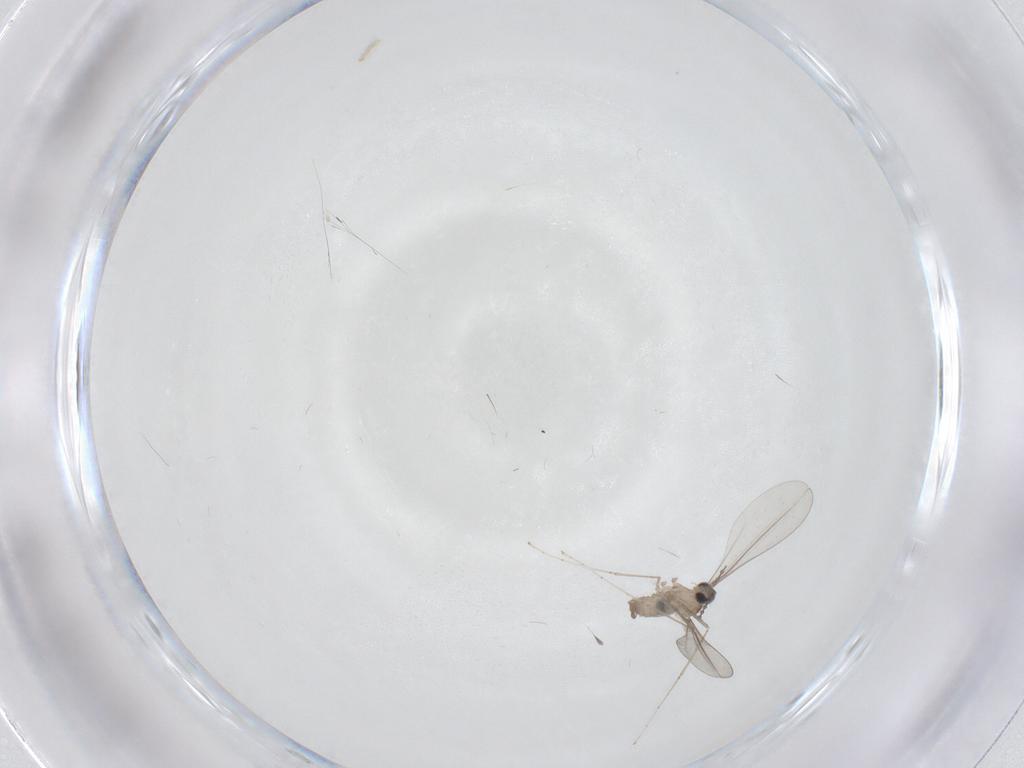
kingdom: Animalia
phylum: Arthropoda
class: Insecta
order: Diptera
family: Cecidomyiidae
